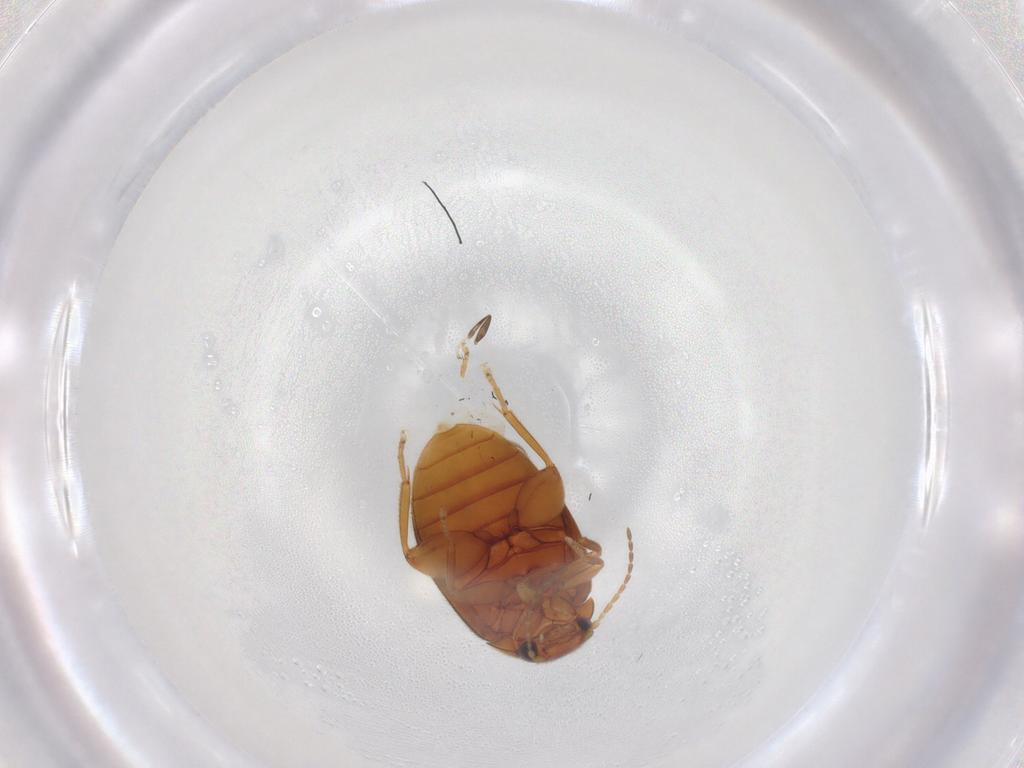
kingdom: Animalia
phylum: Arthropoda
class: Insecta
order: Coleoptera
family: Scirtidae
